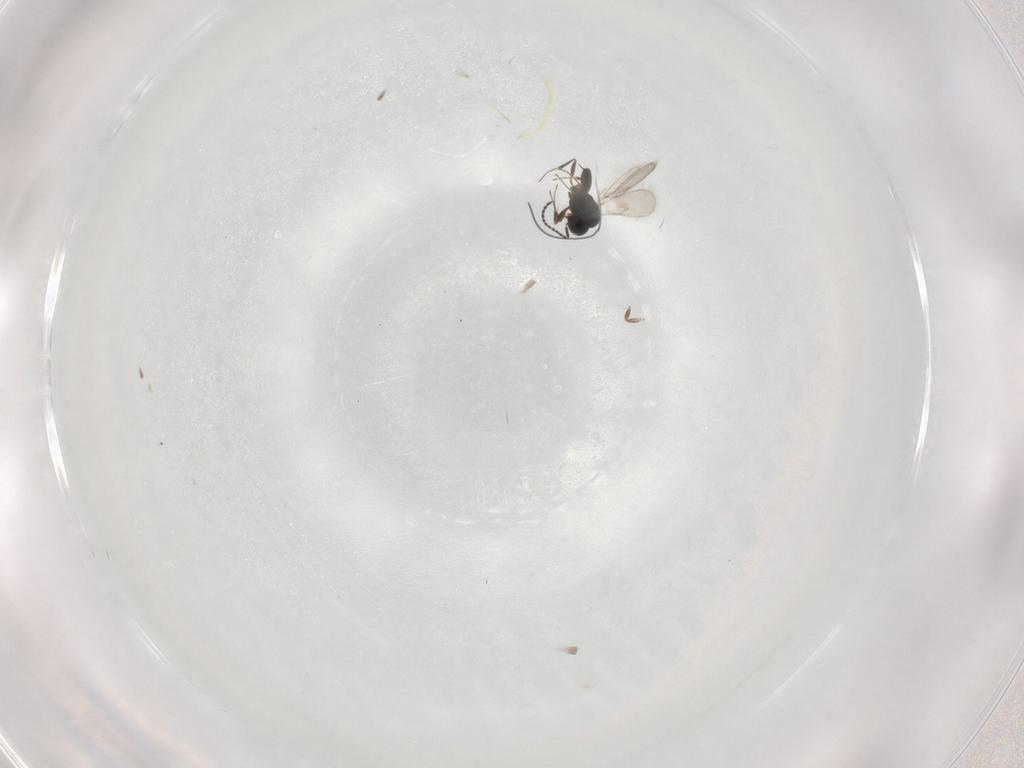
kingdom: Animalia
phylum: Arthropoda
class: Insecta
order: Hymenoptera
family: Scelionidae
